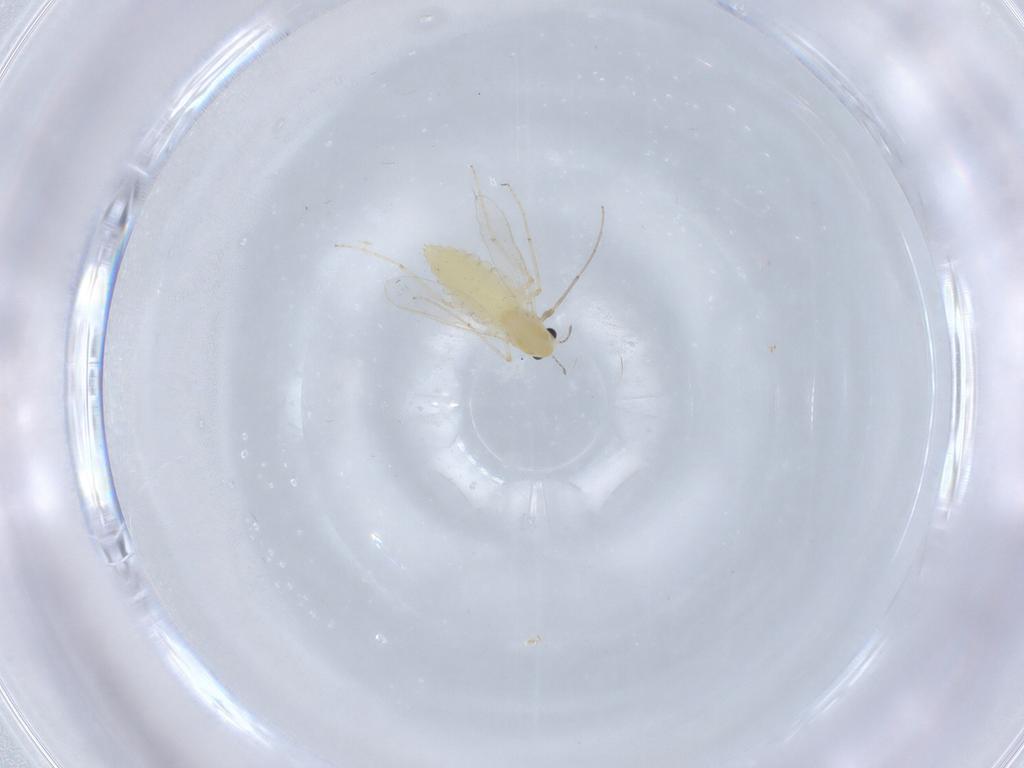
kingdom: Animalia
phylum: Arthropoda
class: Insecta
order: Diptera
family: Chironomidae
